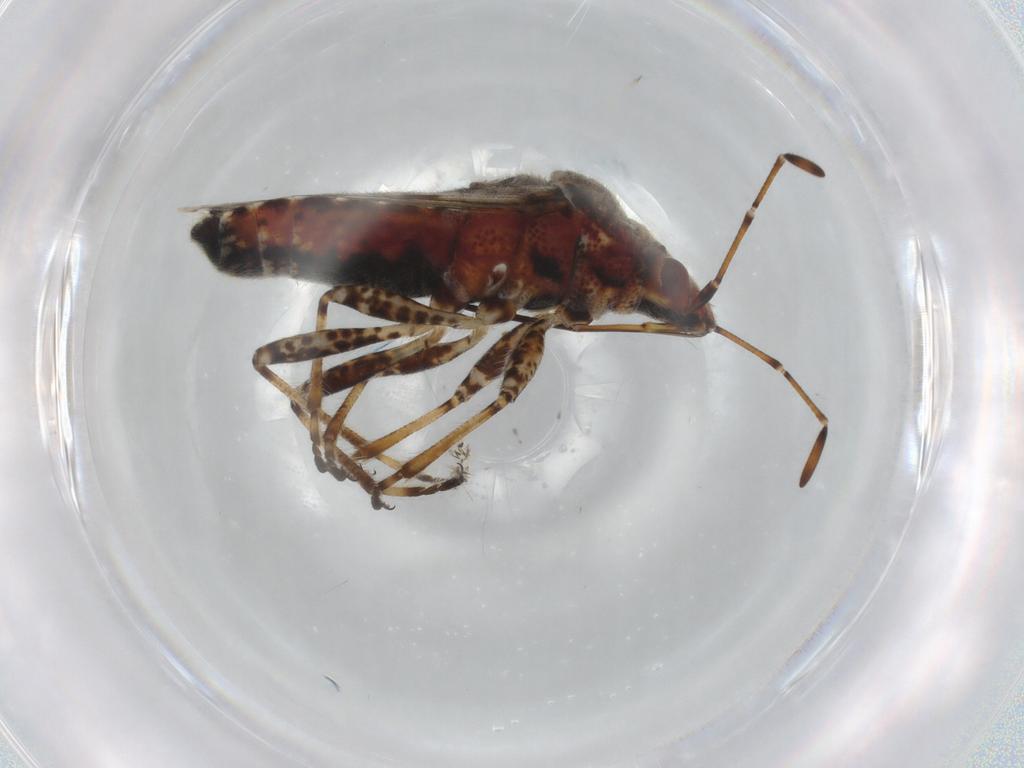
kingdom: Animalia
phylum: Arthropoda
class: Insecta
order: Hemiptera
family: Lygaeidae
